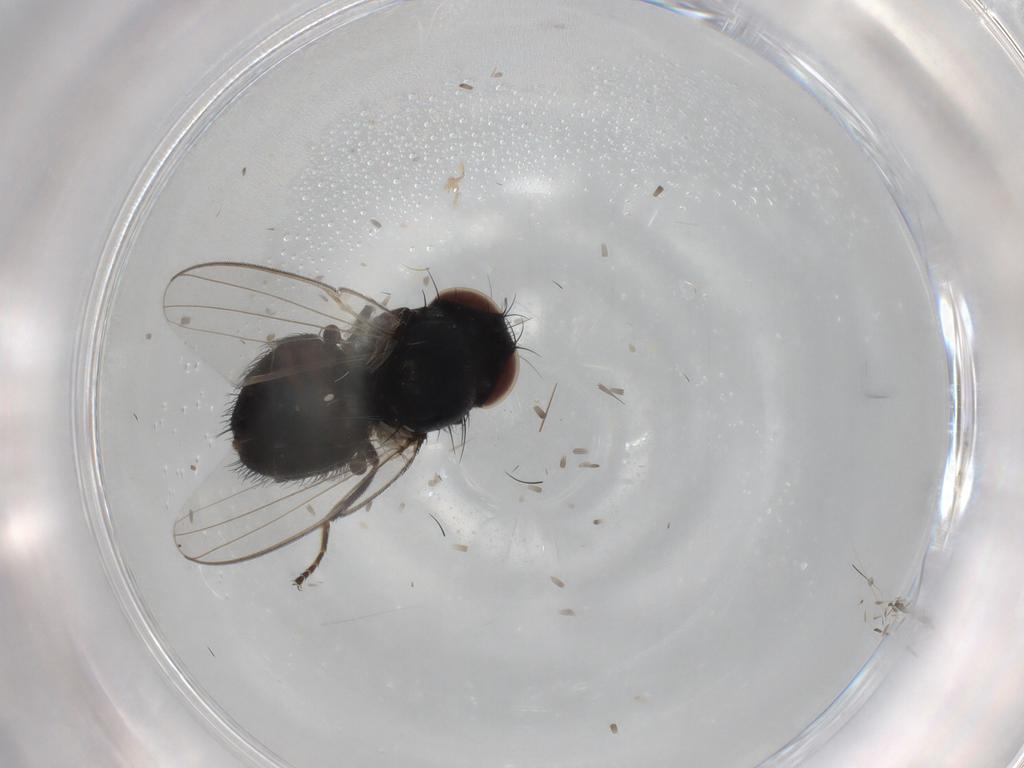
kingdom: Animalia
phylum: Arthropoda
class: Insecta
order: Diptera
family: Milichiidae
